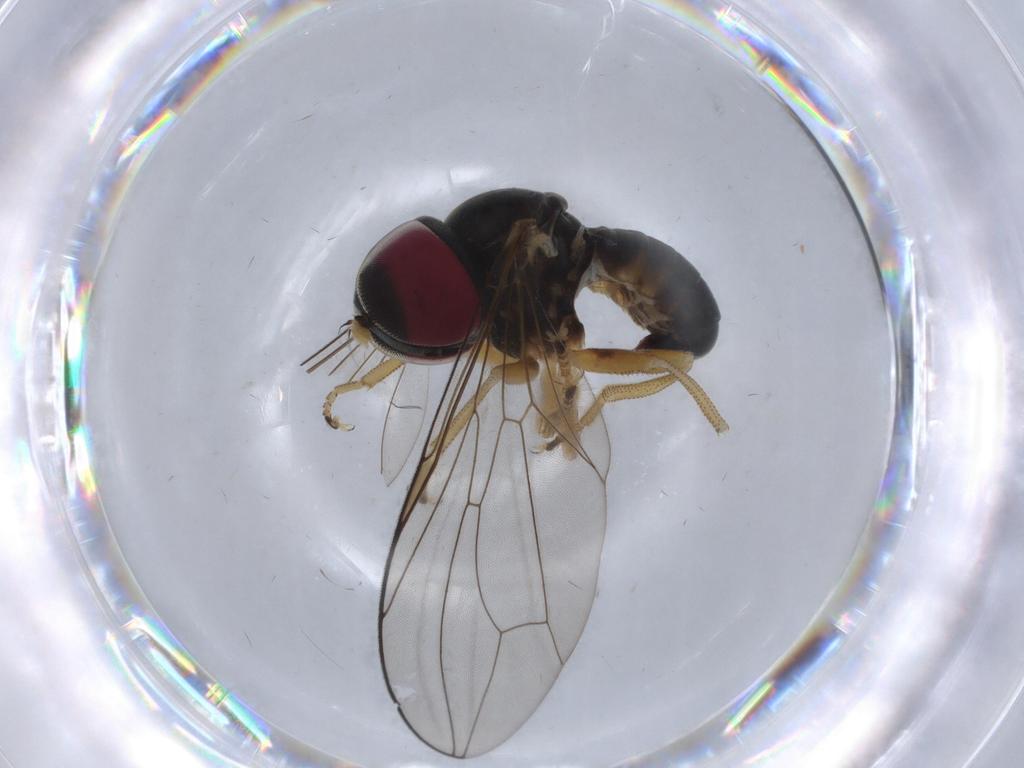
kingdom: Animalia
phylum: Arthropoda
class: Insecta
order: Diptera
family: Pipunculidae
